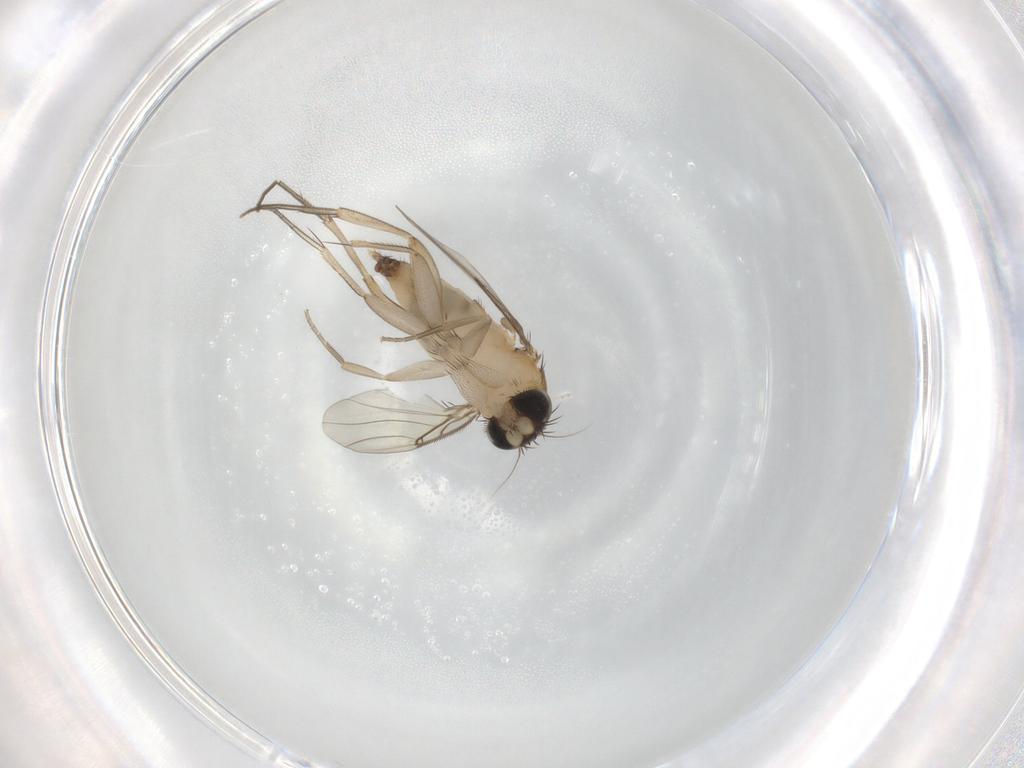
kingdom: Animalia
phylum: Arthropoda
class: Insecta
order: Diptera
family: Phoridae
